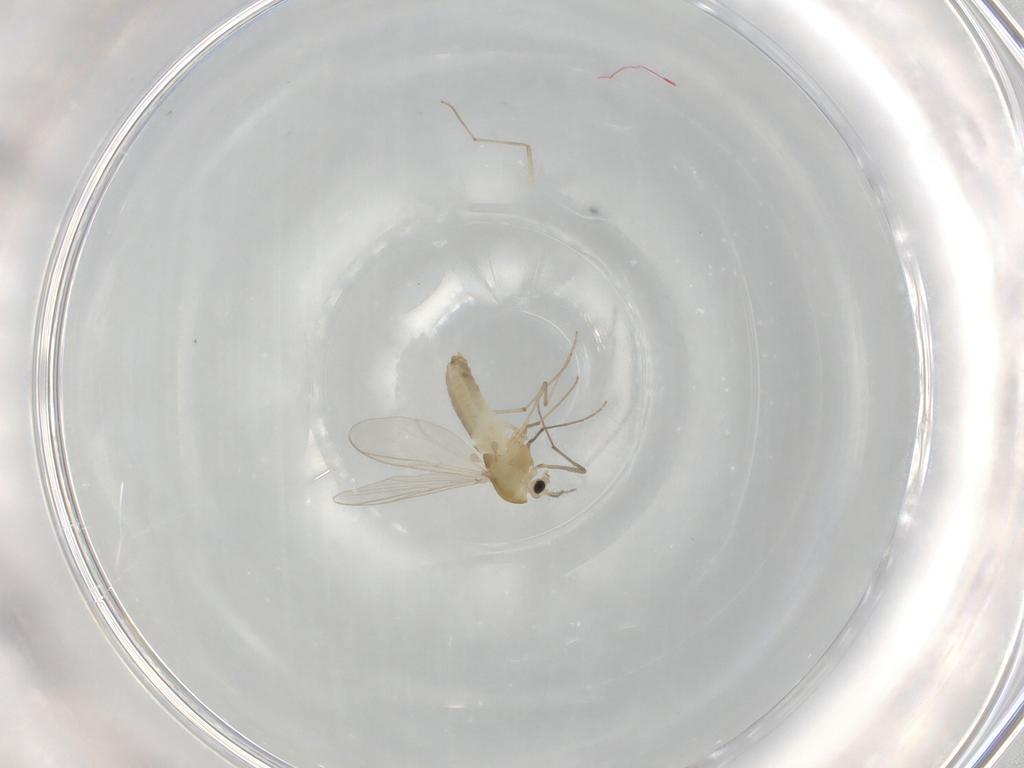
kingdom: Animalia
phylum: Arthropoda
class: Insecta
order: Diptera
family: Chironomidae
